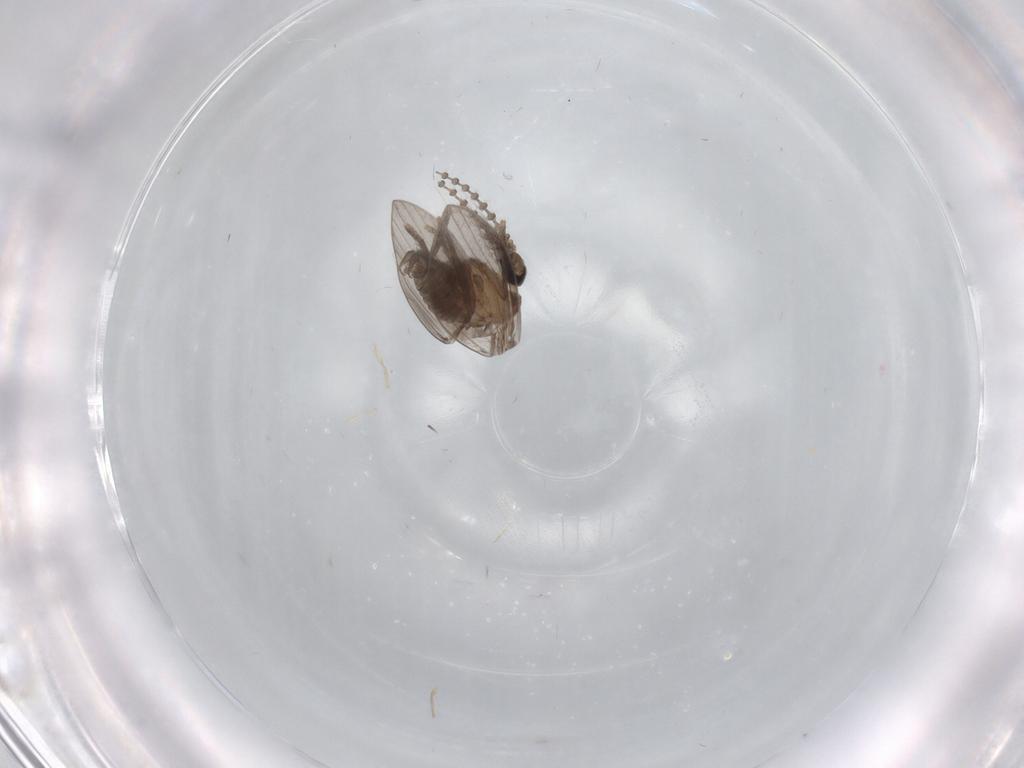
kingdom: Animalia
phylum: Arthropoda
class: Insecta
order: Diptera
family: Psychodidae
